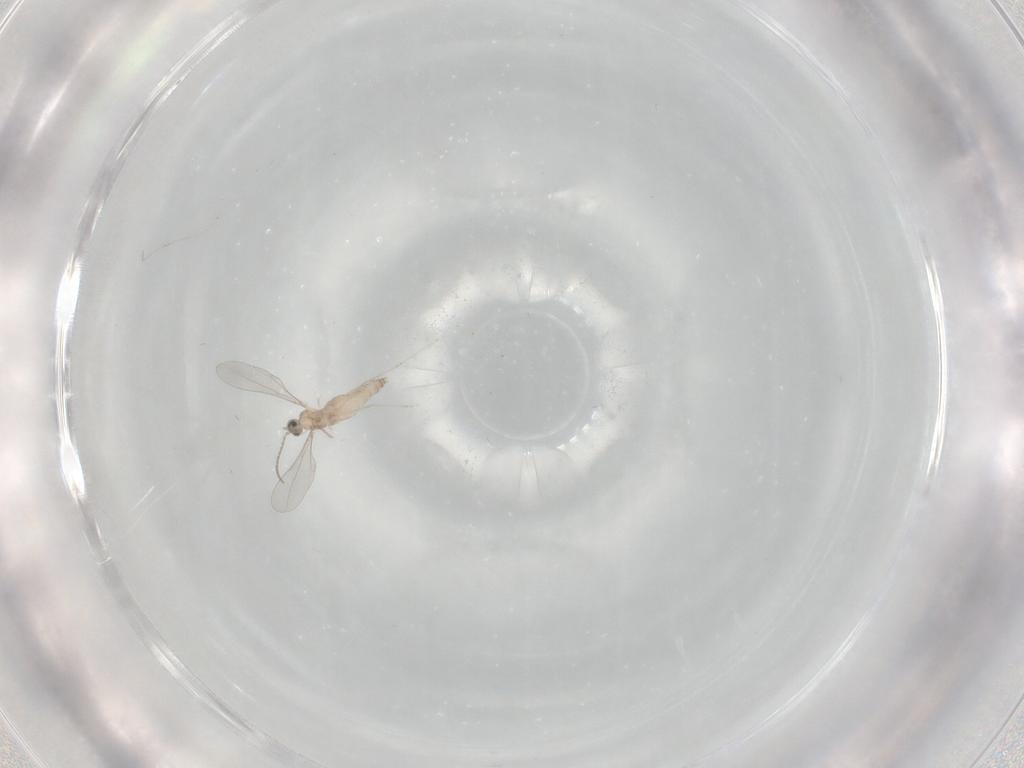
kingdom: Animalia
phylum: Arthropoda
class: Insecta
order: Diptera
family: Cecidomyiidae
